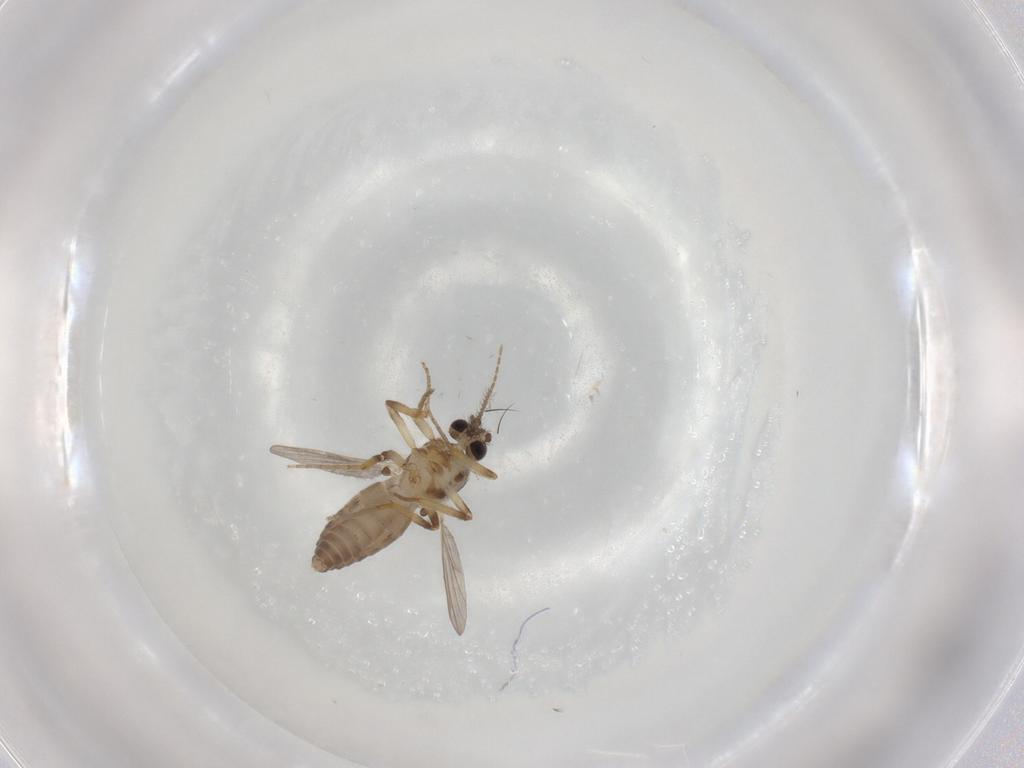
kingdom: Animalia
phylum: Arthropoda
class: Insecta
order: Diptera
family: Ceratopogonidae
